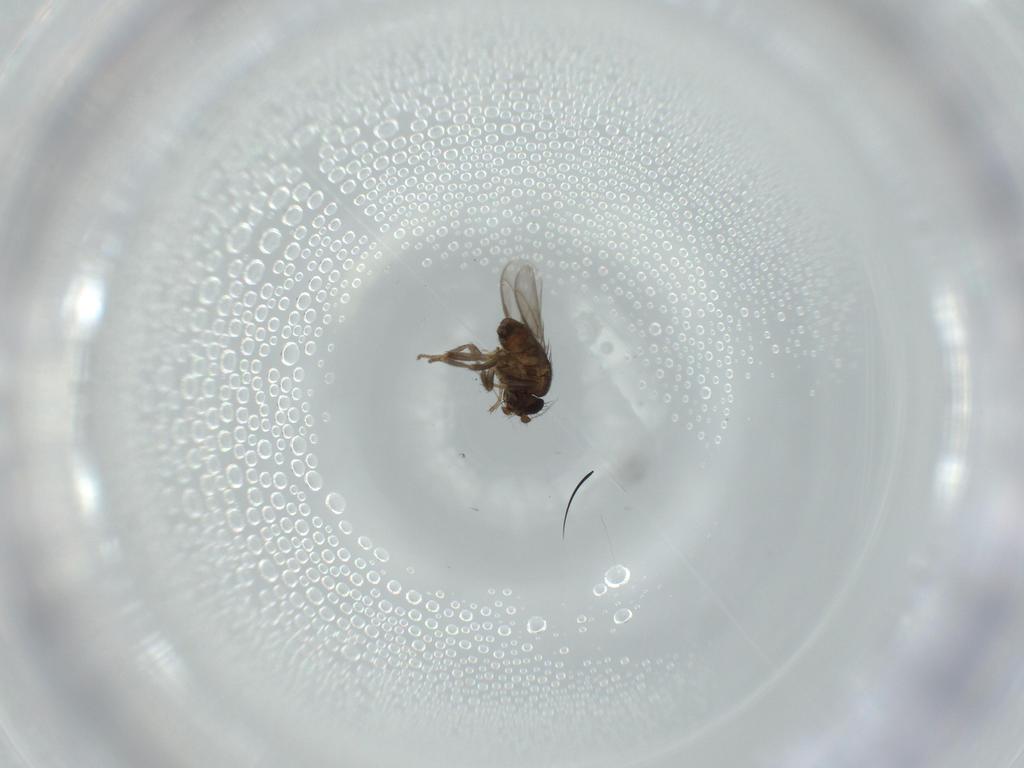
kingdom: Animalia
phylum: Arthropoda
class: Insecta
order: Diptera
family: Sphaeroceridae
